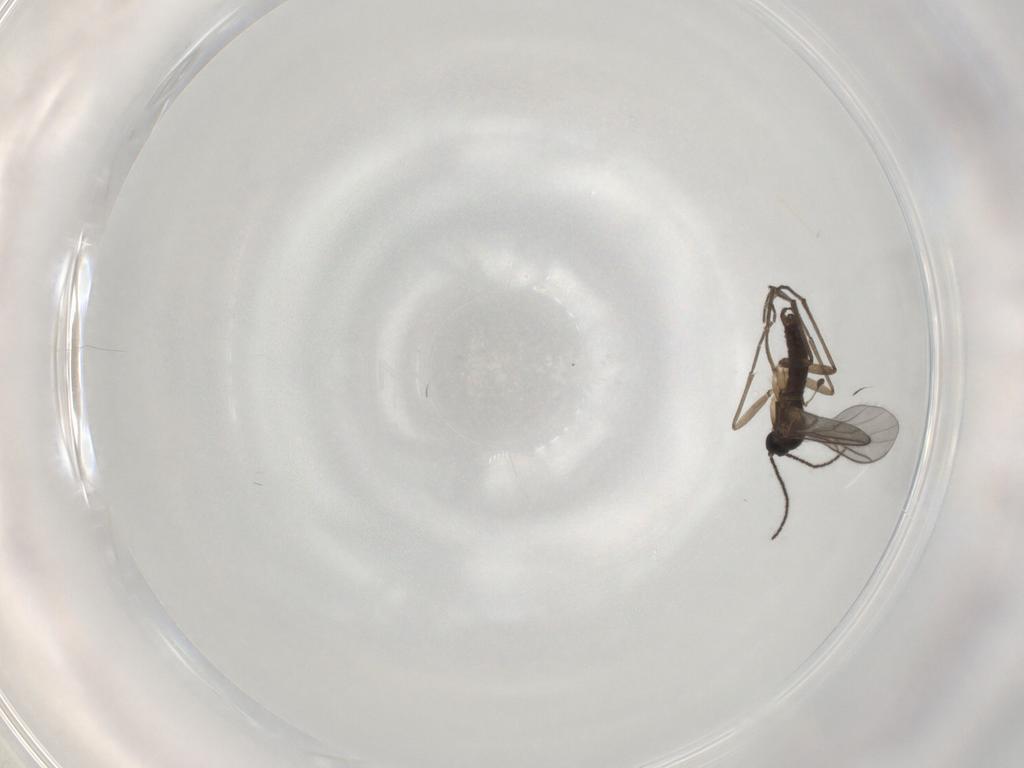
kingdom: Animalia
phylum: Arthropoda
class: Insecta
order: Diptera
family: Sciaridae
